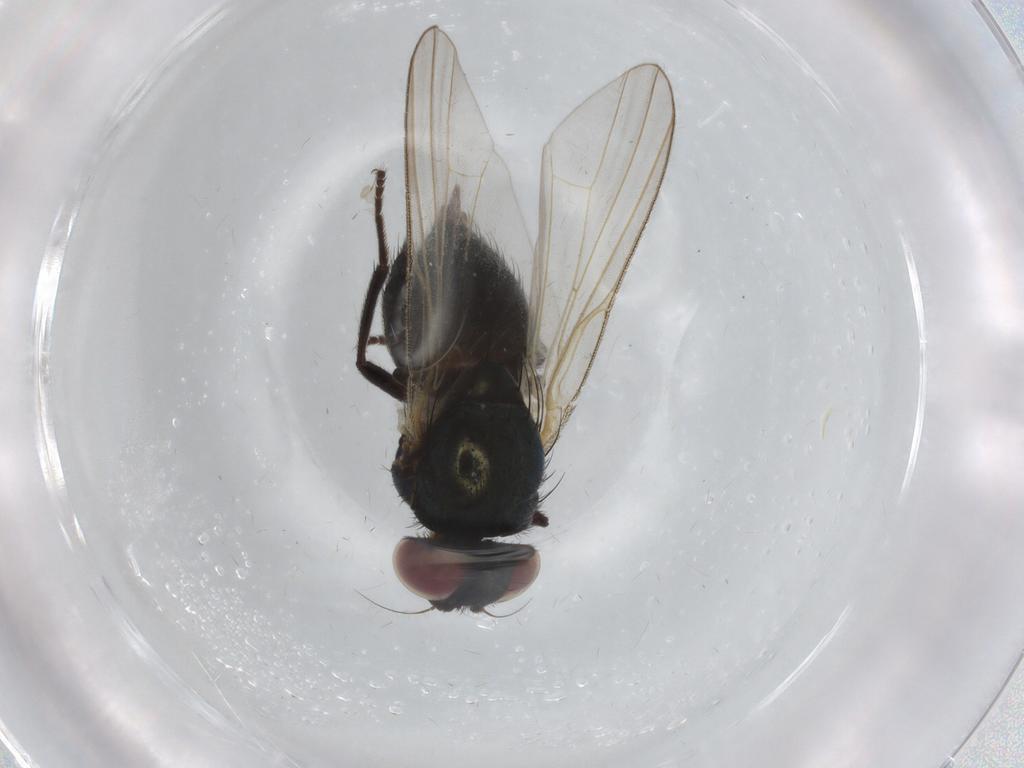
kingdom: Animalia
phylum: Arthropoda
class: Insecta
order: Diptera
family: Lonchaeidae
